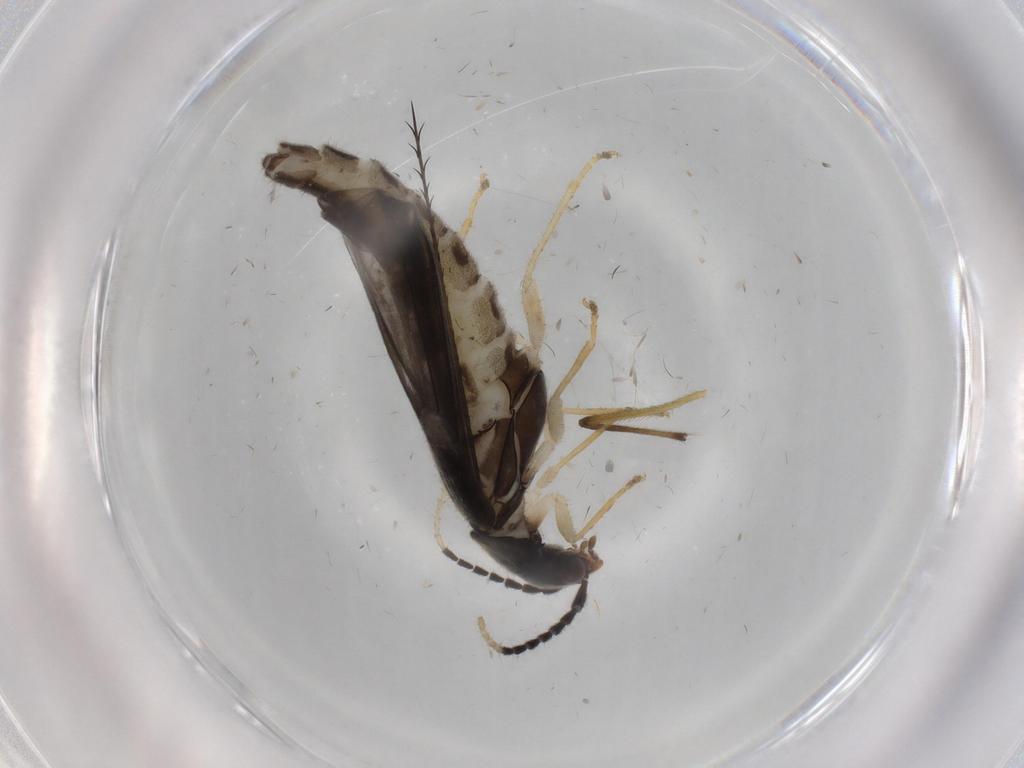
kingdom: Animalia
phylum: Arthropoda
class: Insecta
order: Coleoptera
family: Cantharidae
